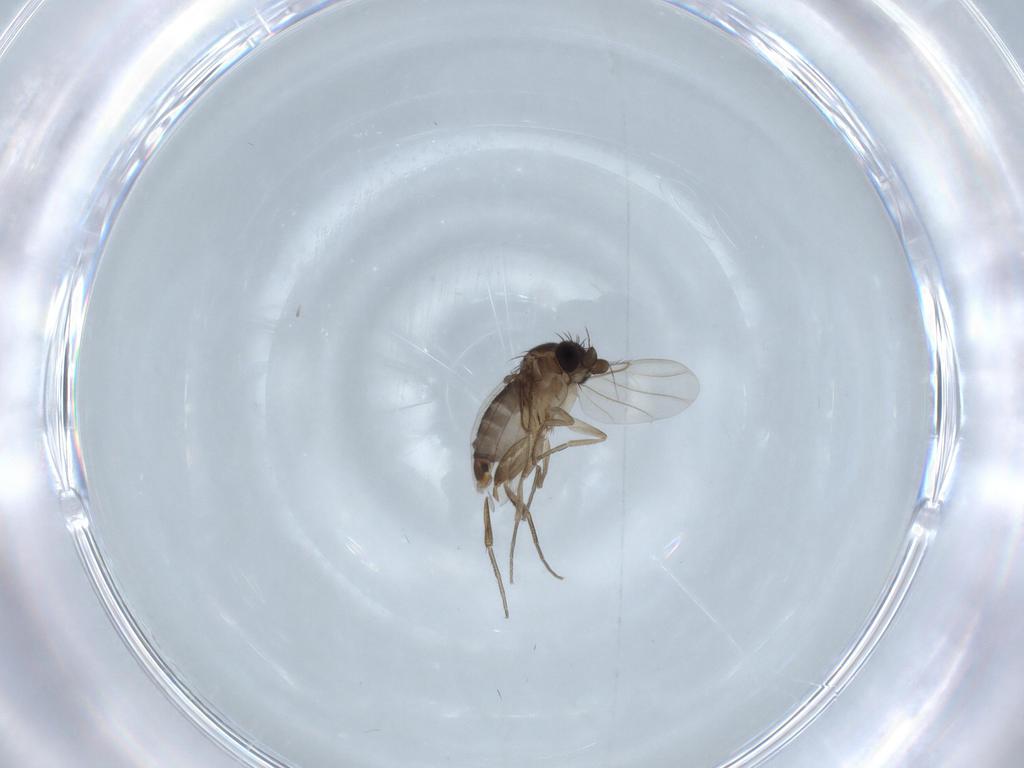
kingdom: Animalia
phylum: Arthropoda
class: Insecta
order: Diptera
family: Phoridae
